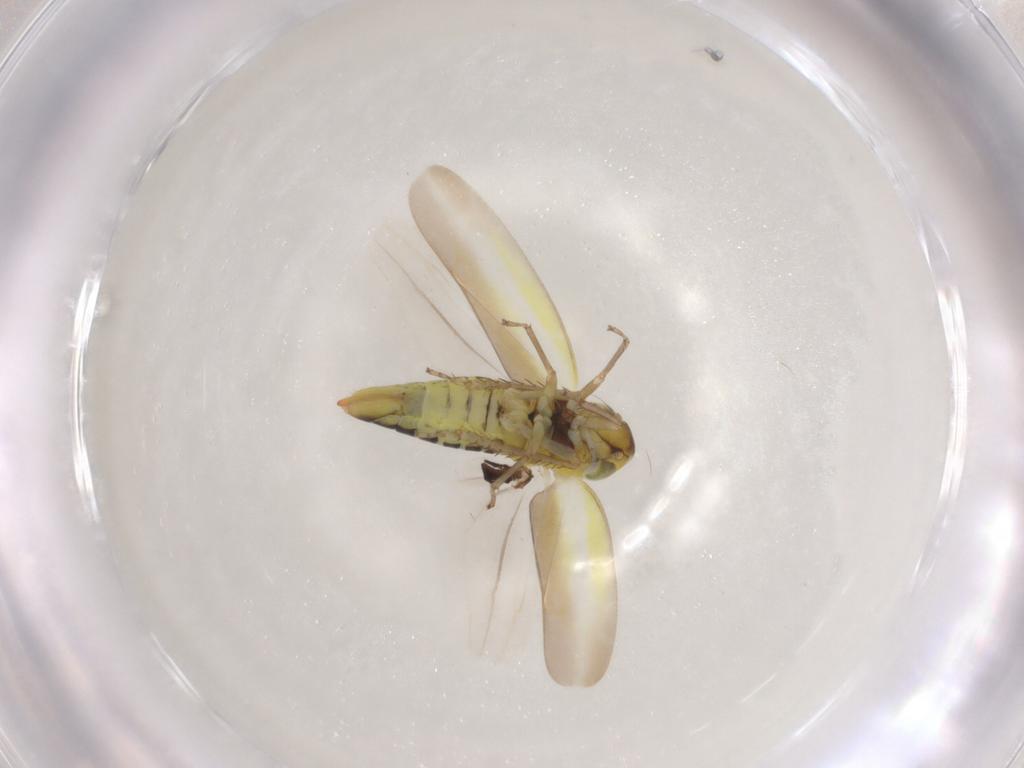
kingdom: Animalia
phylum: Arthropoda
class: Insecta
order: Hemiptera
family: Cicadellidae
